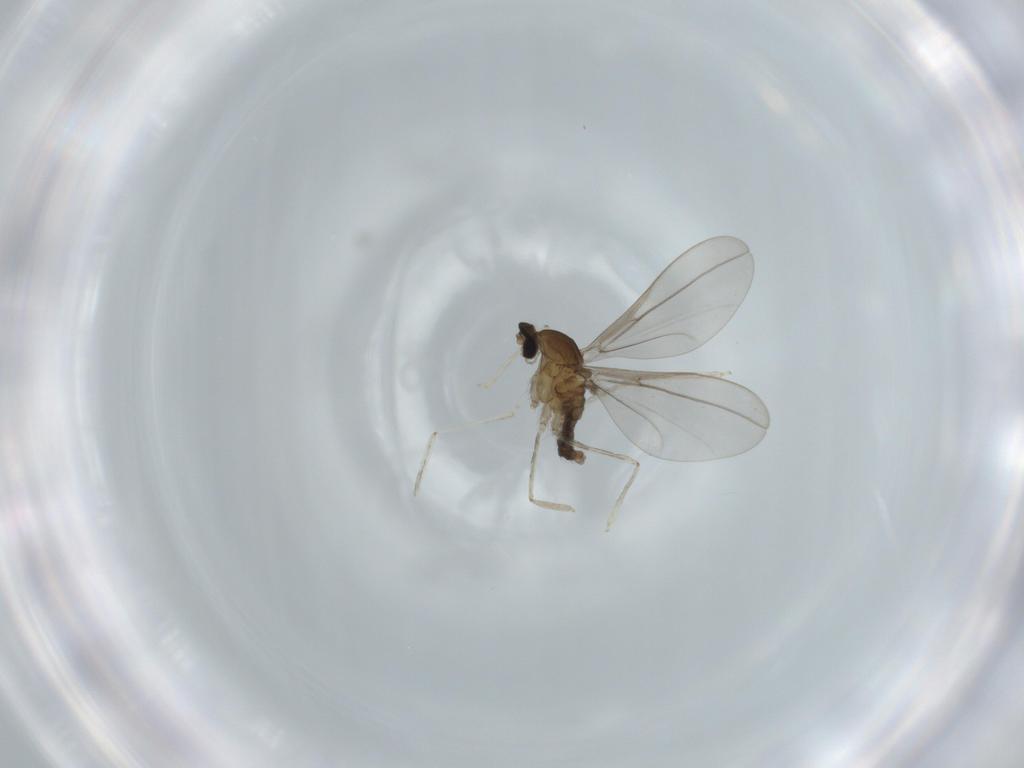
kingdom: Animalia
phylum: Arthropoda
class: Insecta
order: Diptera
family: Cecidomyiidae
